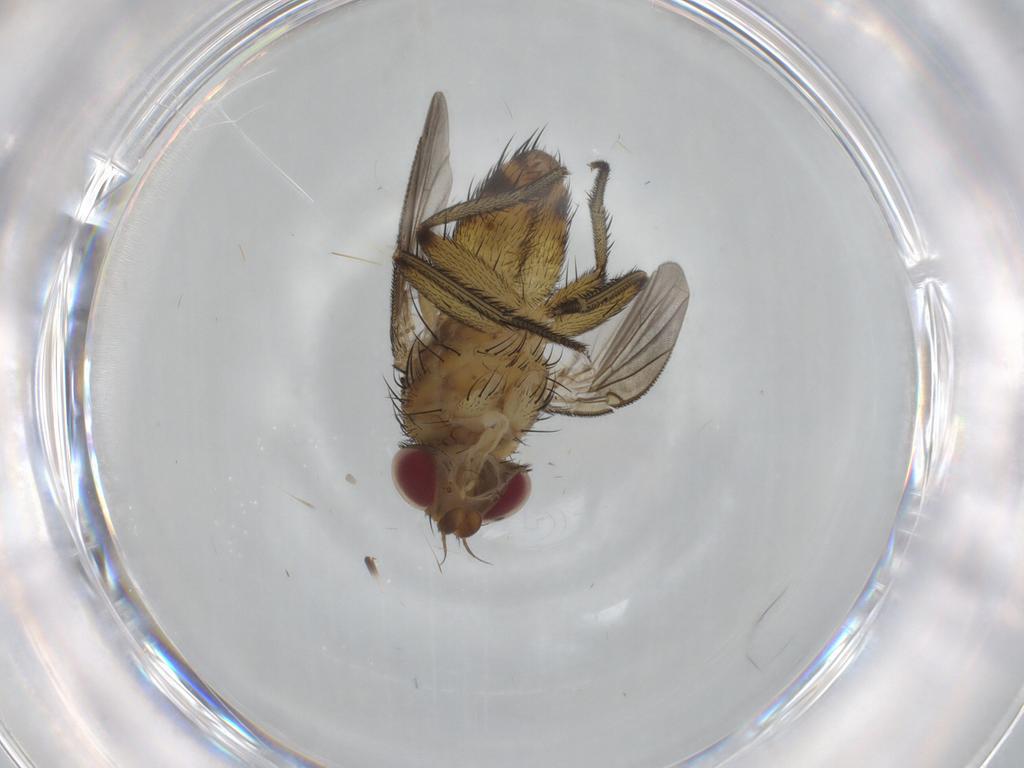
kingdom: Animalia
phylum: Arthropoda
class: Insecta
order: Diptera
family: Tachinidae
